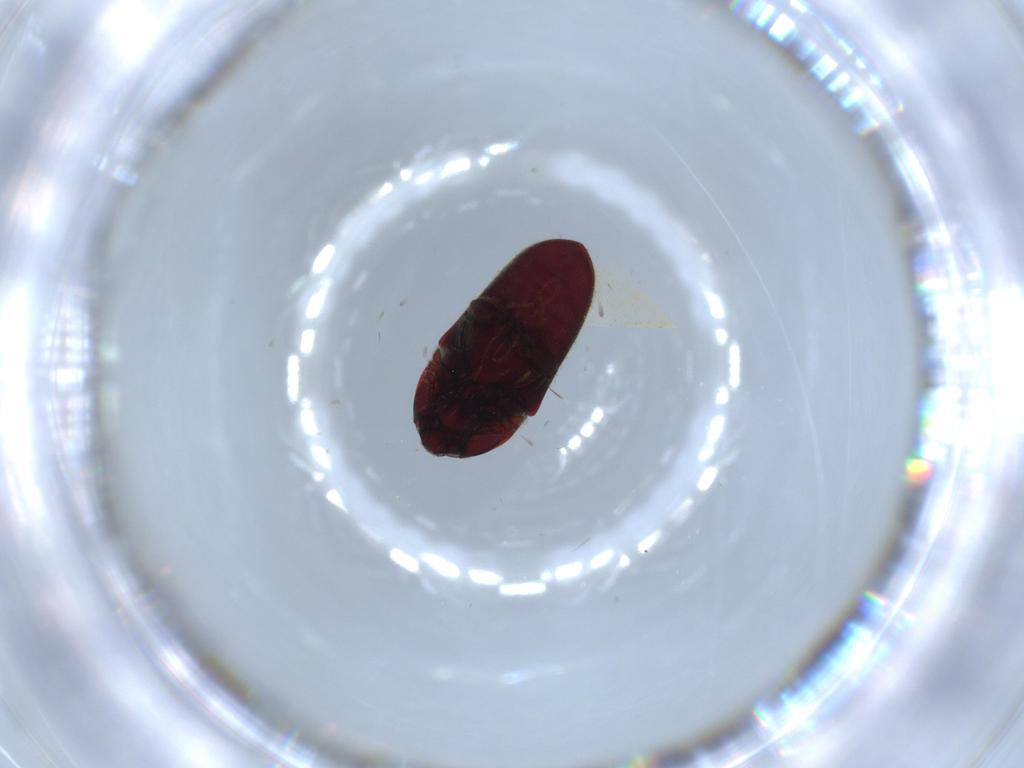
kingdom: Animalia
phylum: Arthropoda
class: Insecta
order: Coleoptera
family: Throscidae
